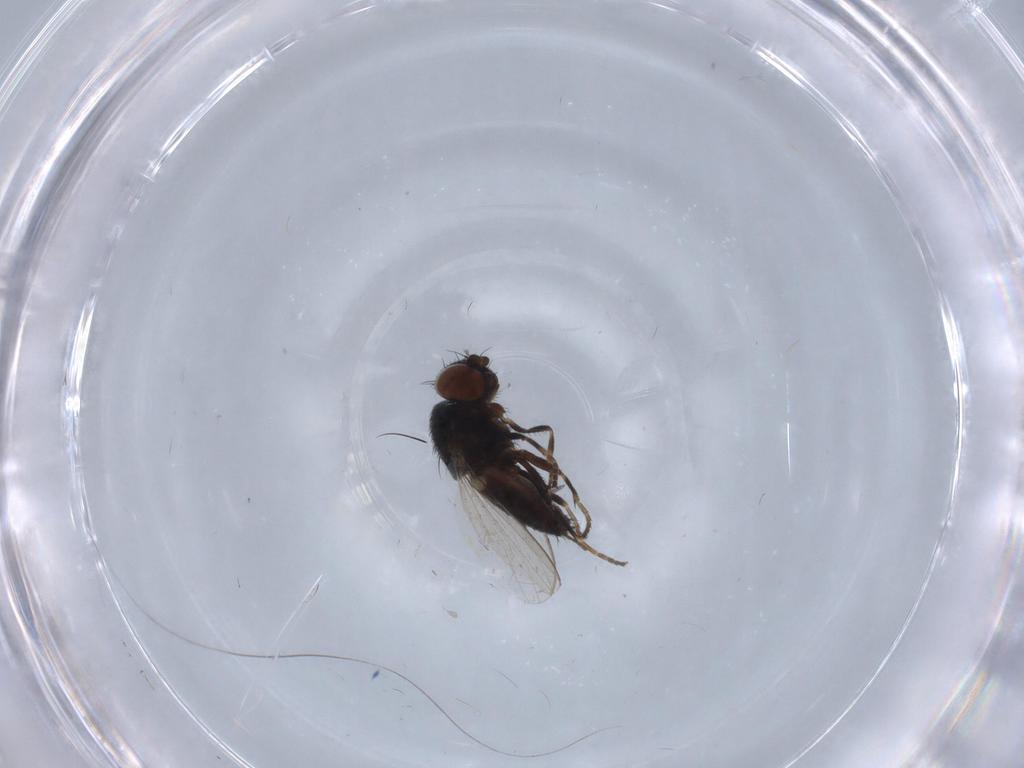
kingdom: Animalia
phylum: Arthropoda
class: Insecta
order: Diptera
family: Milichiidae
